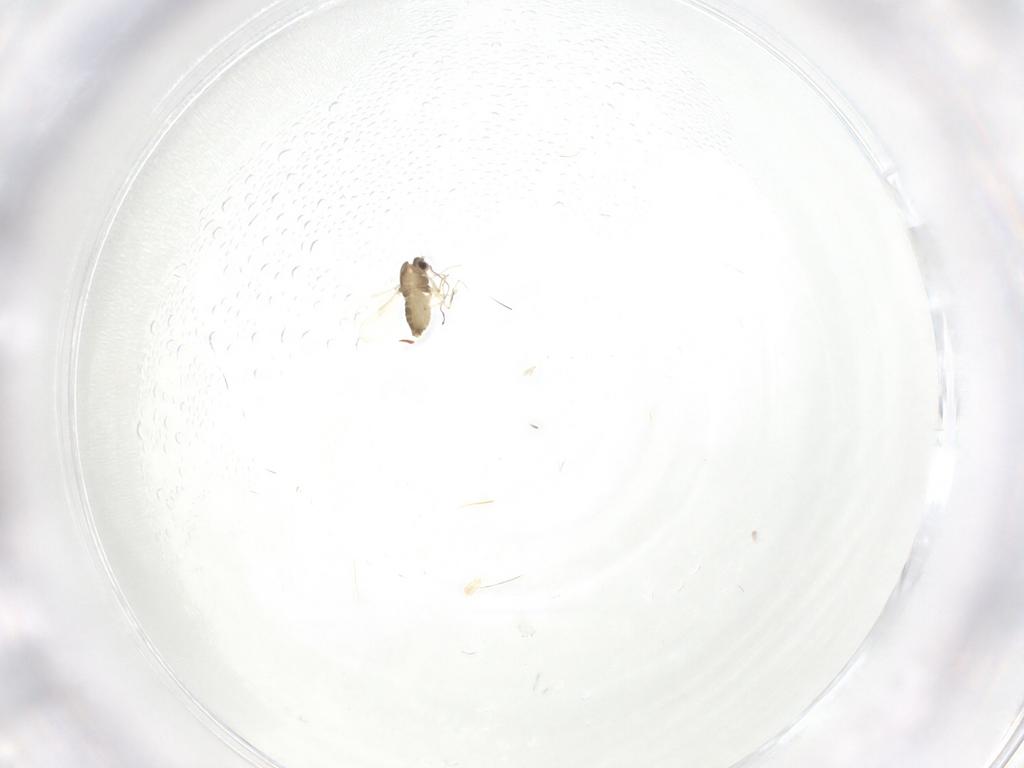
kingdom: Animalia
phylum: Arthropoda
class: Insecta
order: Diptera
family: Chironomidae
